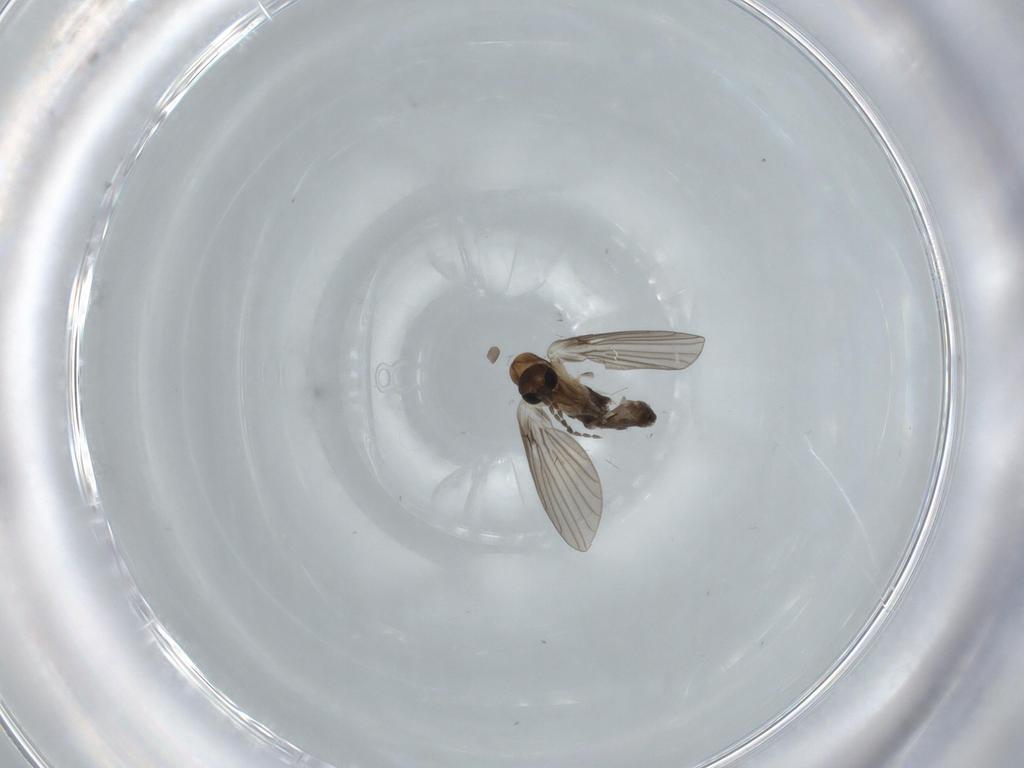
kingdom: Animalia
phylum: Arthropoda
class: Insecta
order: Diptera
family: Psychodidae
